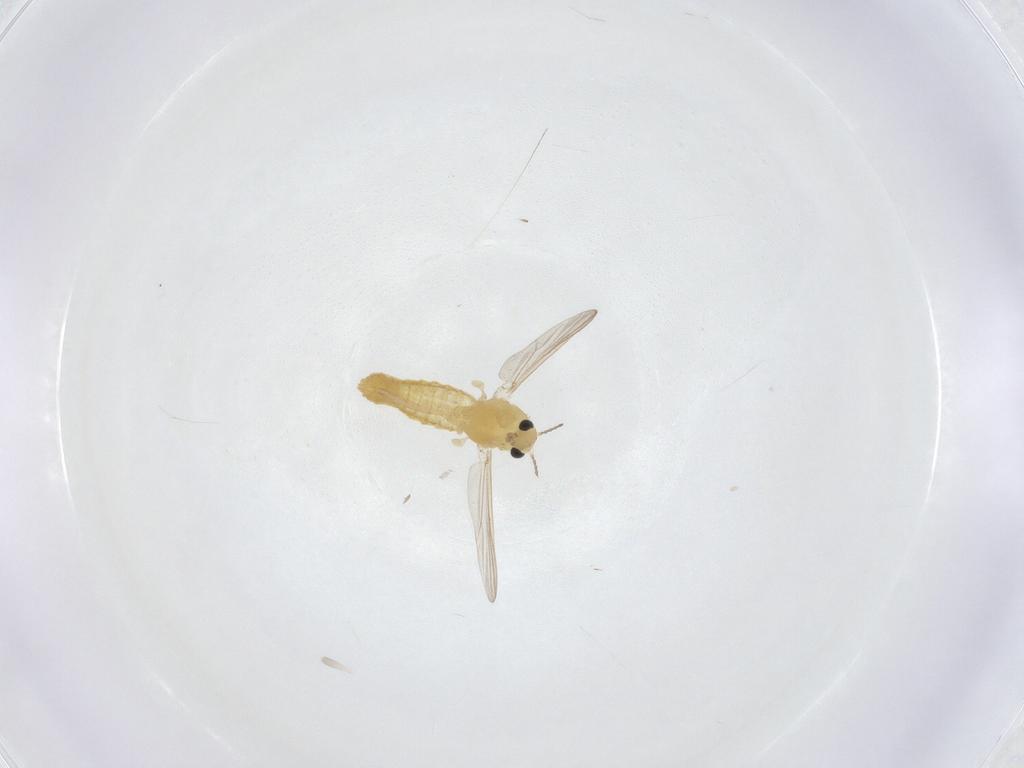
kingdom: Animalia
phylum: Arthropoda
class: Insecta
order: Diptera
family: Chironomidae
